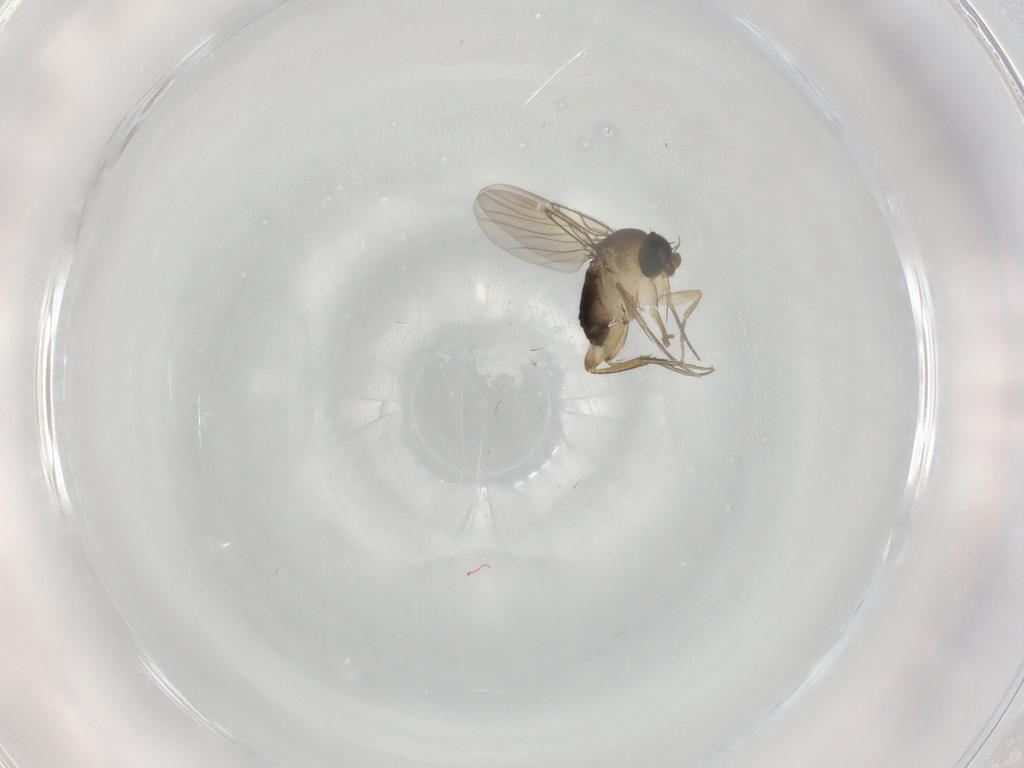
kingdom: Animalia
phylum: Arthropoda
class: Insecta
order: Diptera
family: Phoridae
